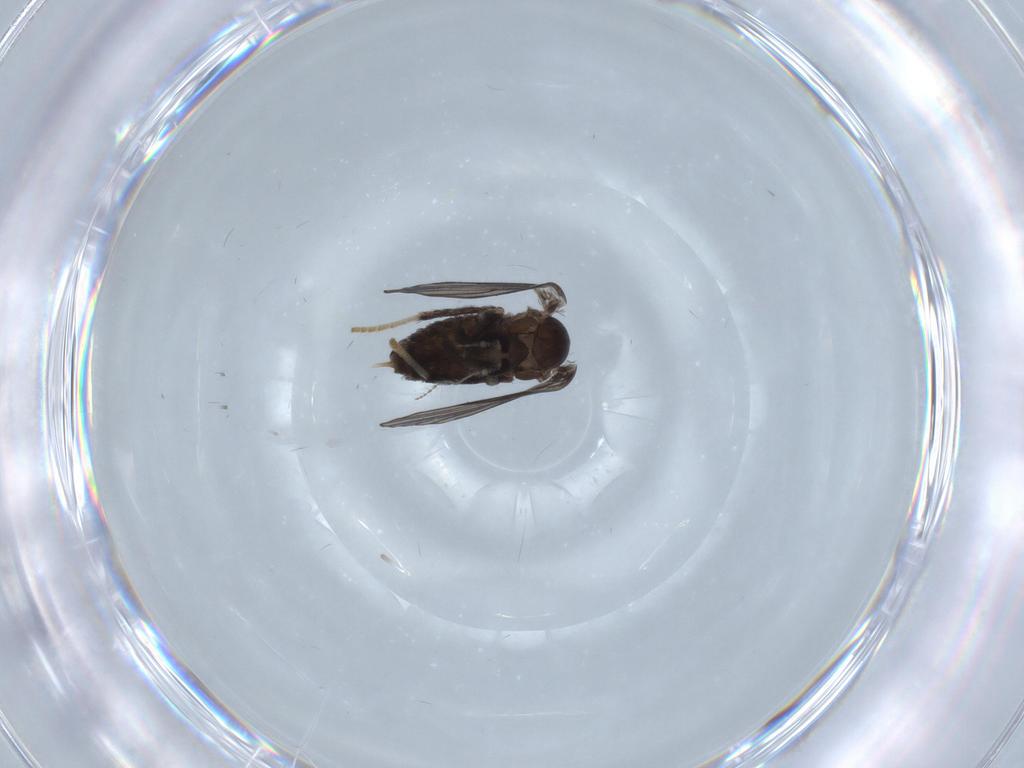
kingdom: Animalia
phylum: Arthropoda
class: Insecta
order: Diptera
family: Psychodidae
